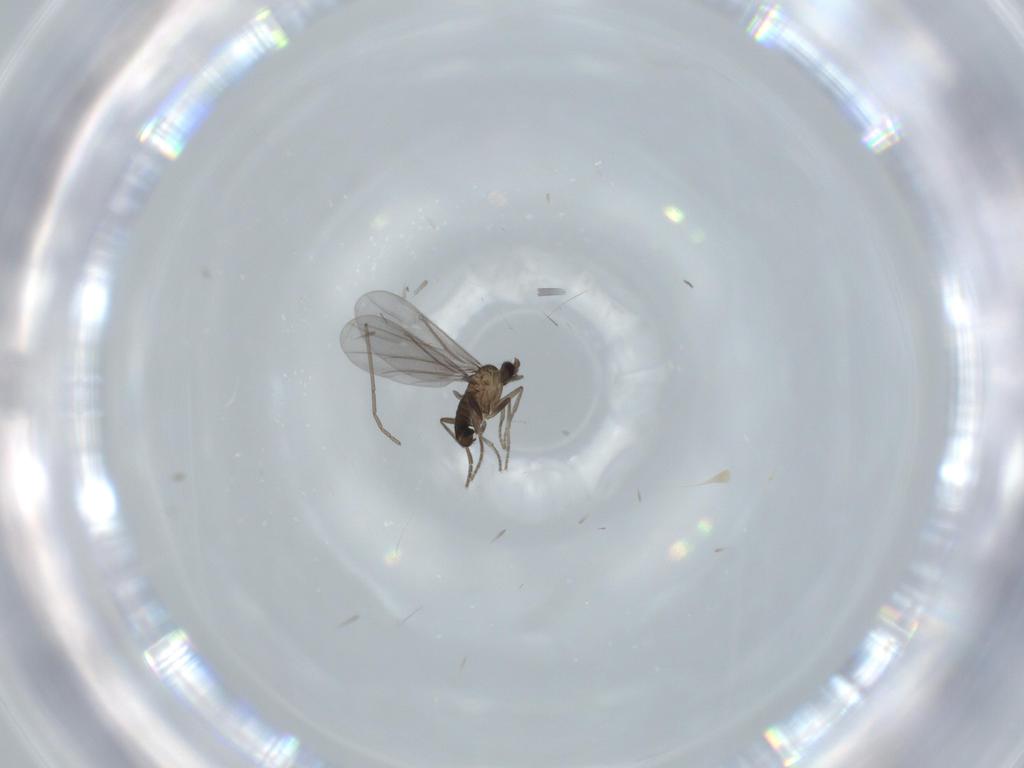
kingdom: Animalia
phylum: Arthropoda
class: Insecta
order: Diptera
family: Cecidomyiidae
